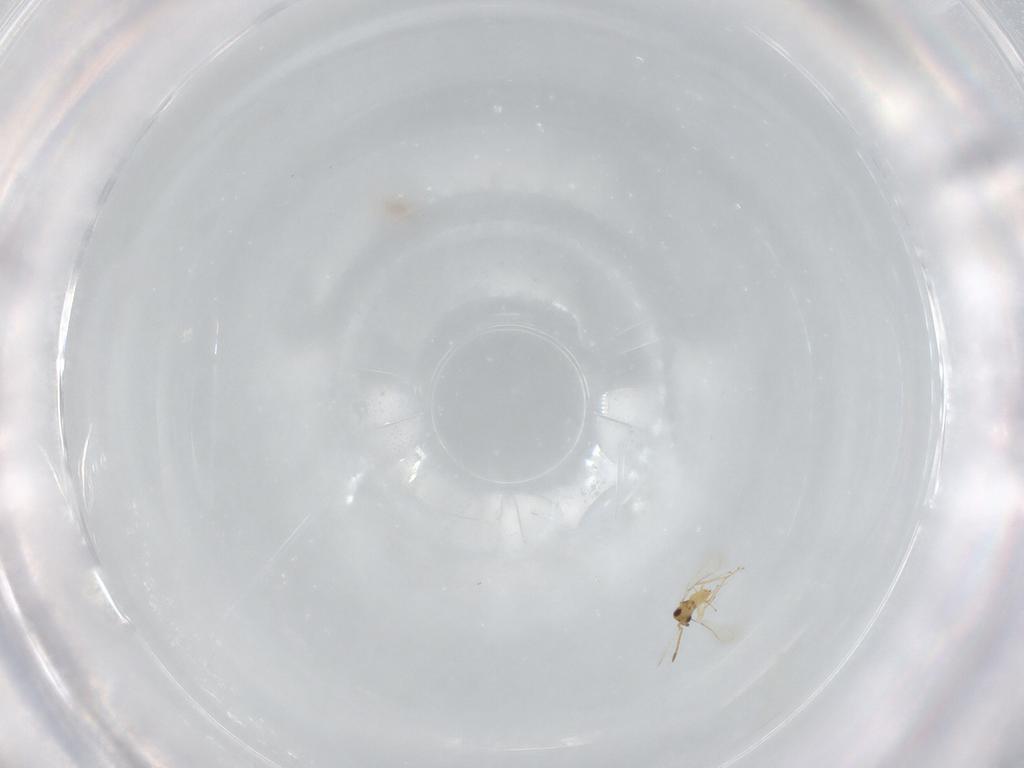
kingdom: Animalia
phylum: Arthropoda
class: Insecta
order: Hymenoptera
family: Mymaridae
